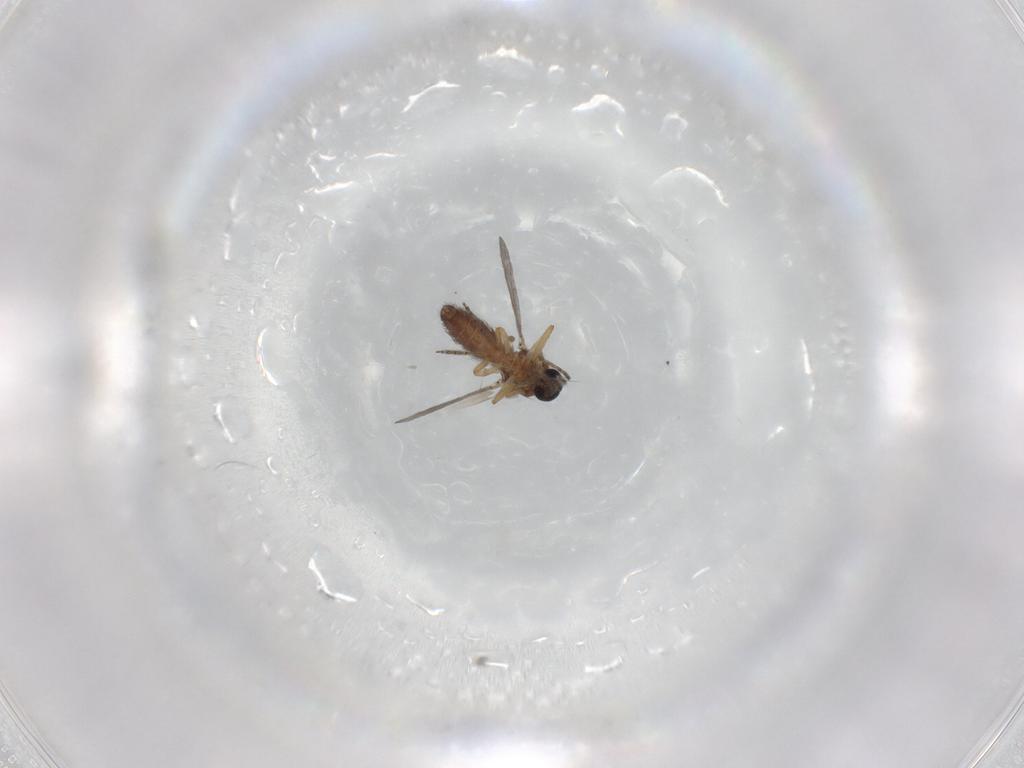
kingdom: Animalia
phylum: Arthropoda
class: Insecta
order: Diptera
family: Ceratopogonidae
